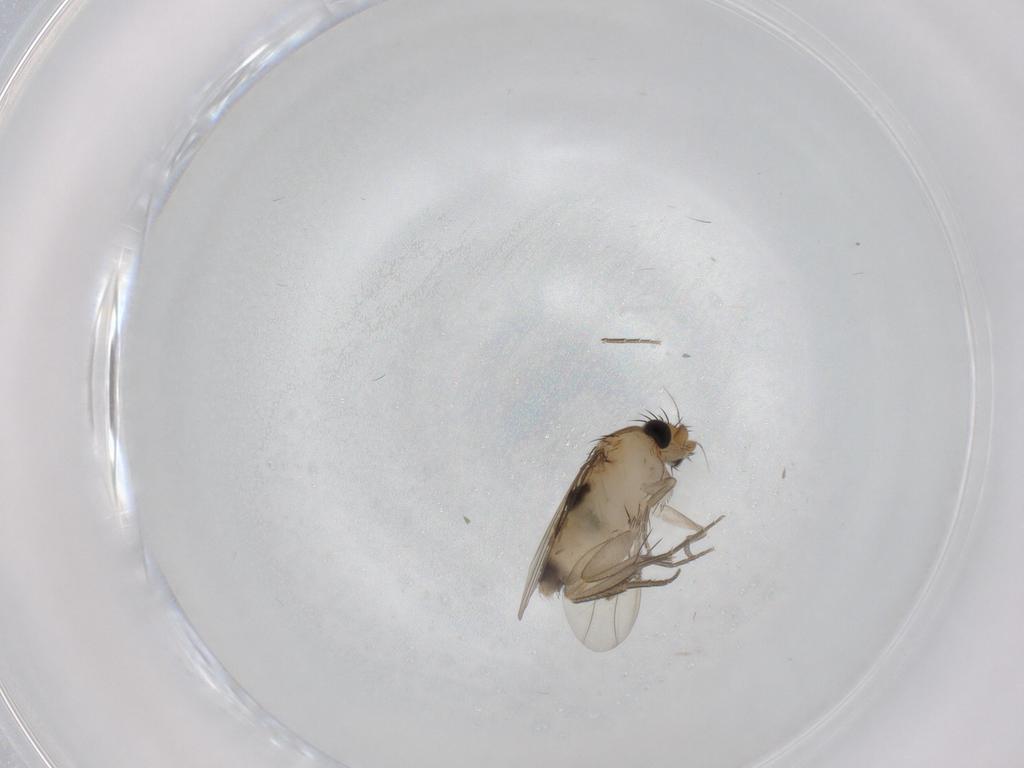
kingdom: Animalia
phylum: Arthropoda
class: Insecta
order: Diptera
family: Phoridae
